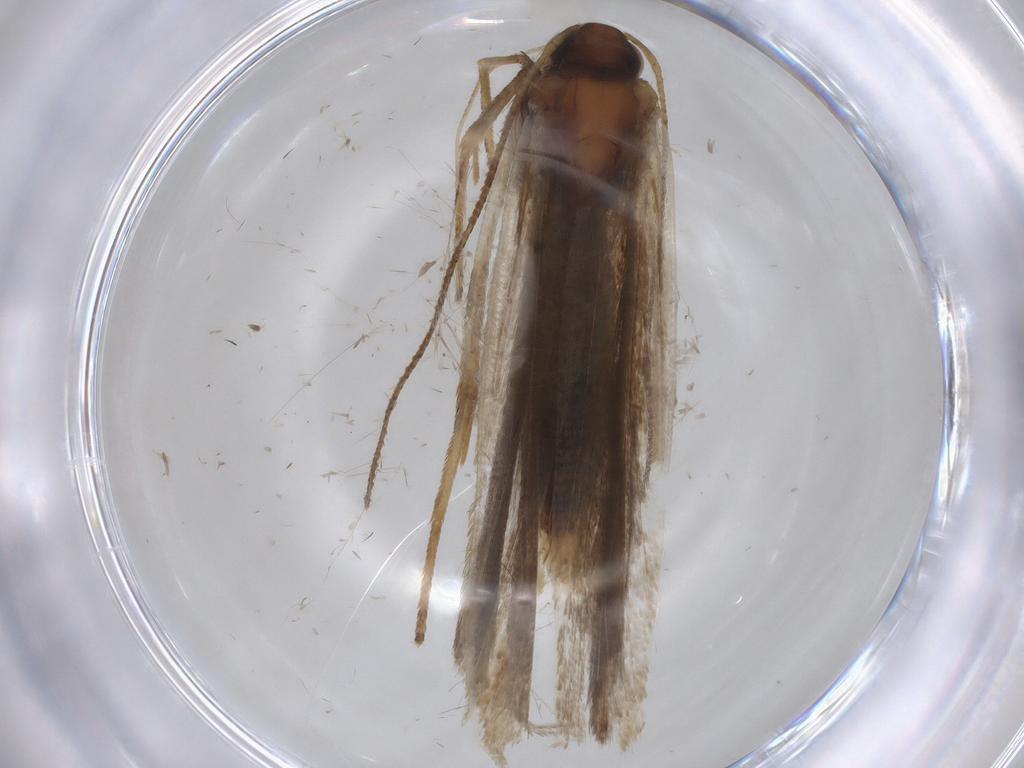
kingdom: Animalia
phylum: Arthropoda
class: Insecta
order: Lepidoptera
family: Gelechiidae
